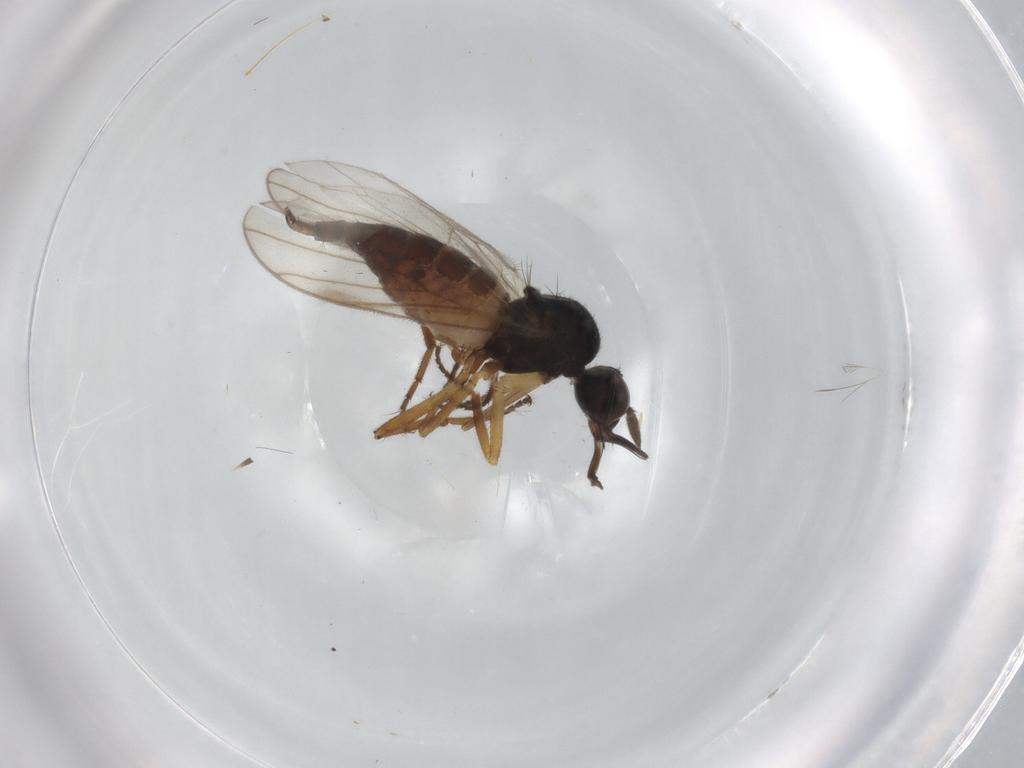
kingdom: Animalia
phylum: Arthropoda
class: Insecta
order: Diptera
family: Hybotidae
